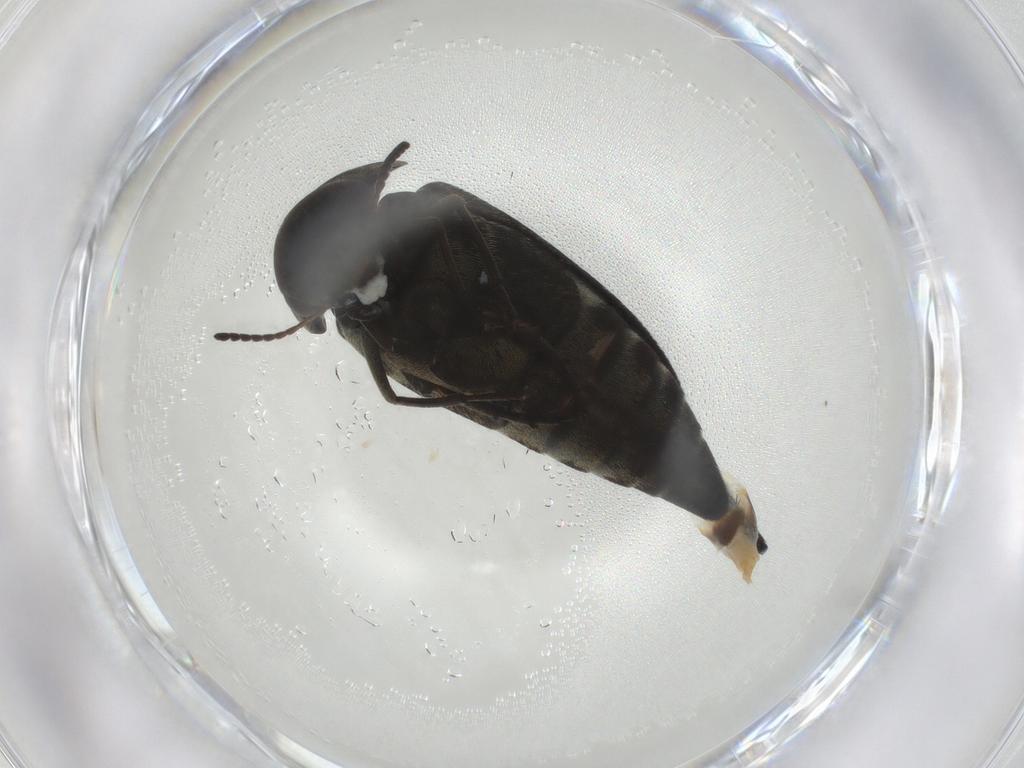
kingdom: Animalia
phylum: Arthropoda
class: Insecta
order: Coleoptera
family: Mordellidae
